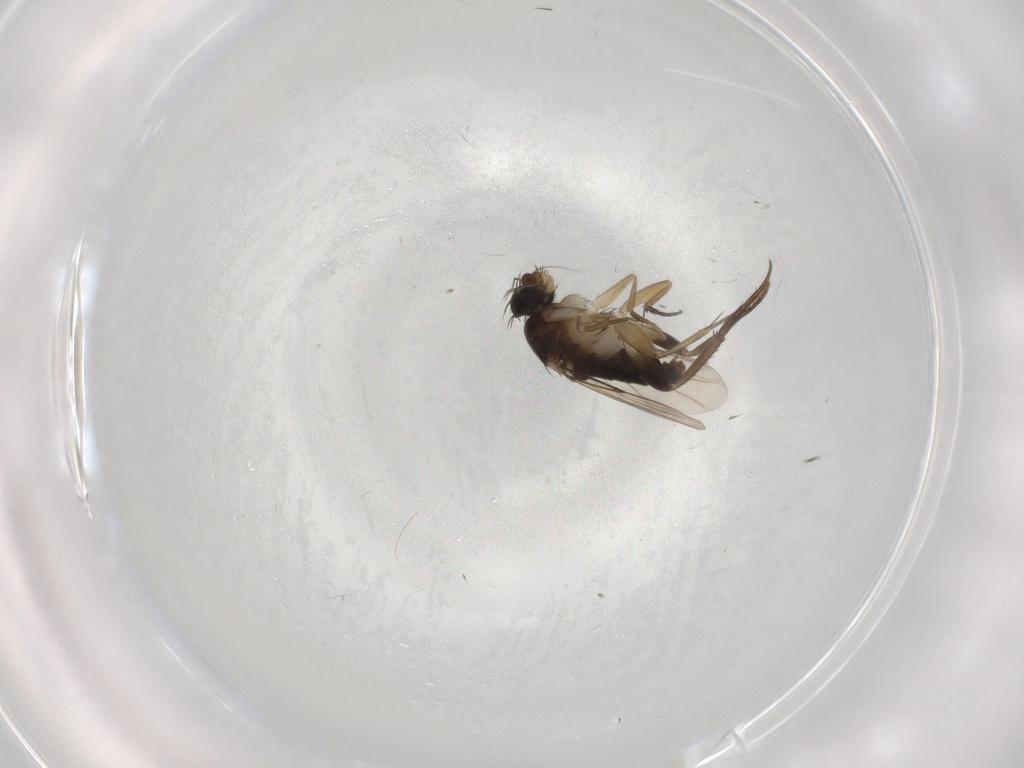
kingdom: Animalia
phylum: Arthropoda
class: Insecta
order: Diptera
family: Phoridae
